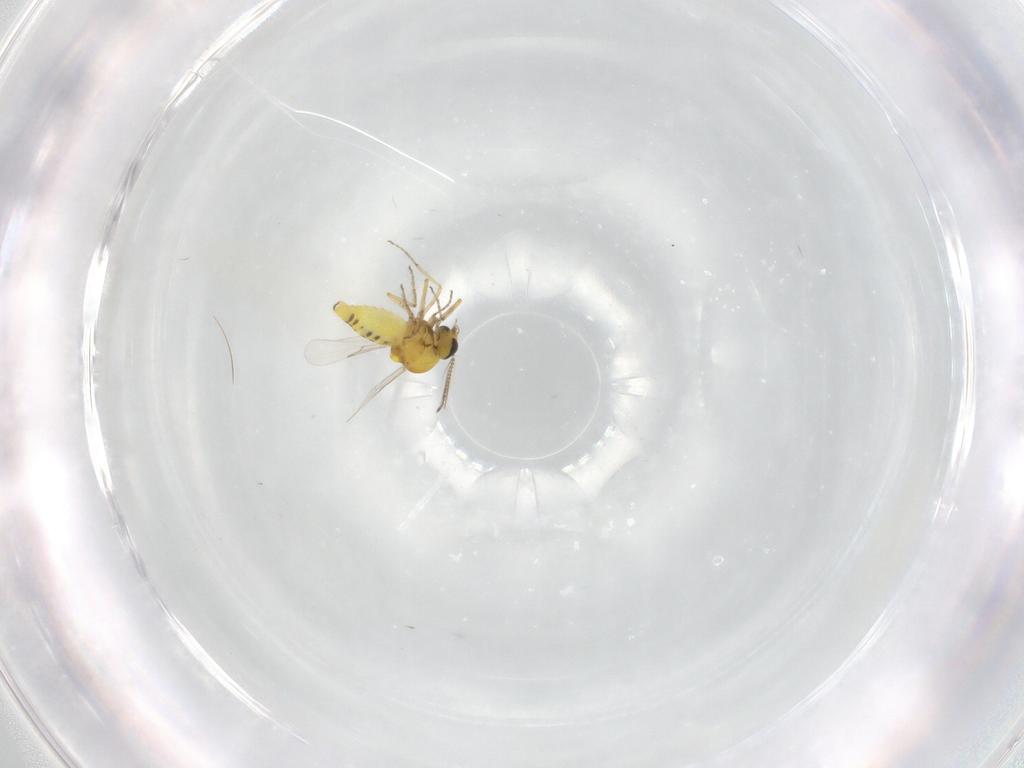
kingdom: Animalia
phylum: Arthropoda
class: Insecta
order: Diptera
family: Ceratopogonidae
